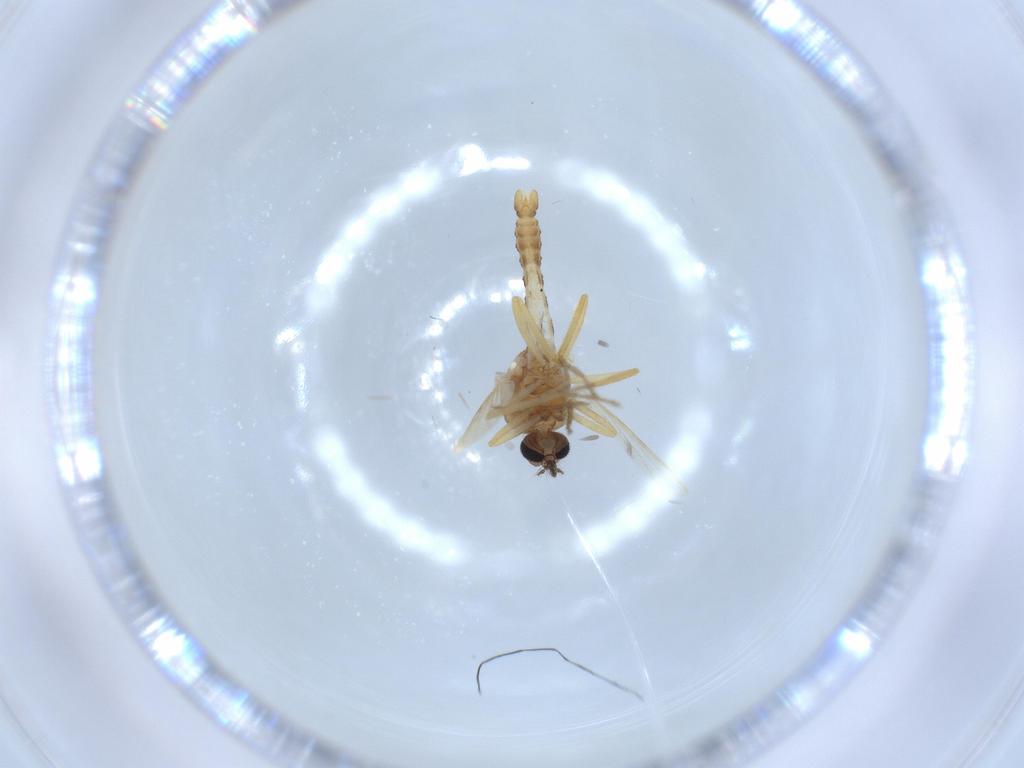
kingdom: Animalia
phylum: Arthropoda
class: Insecta
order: Diptera
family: Ceratopogonidae
